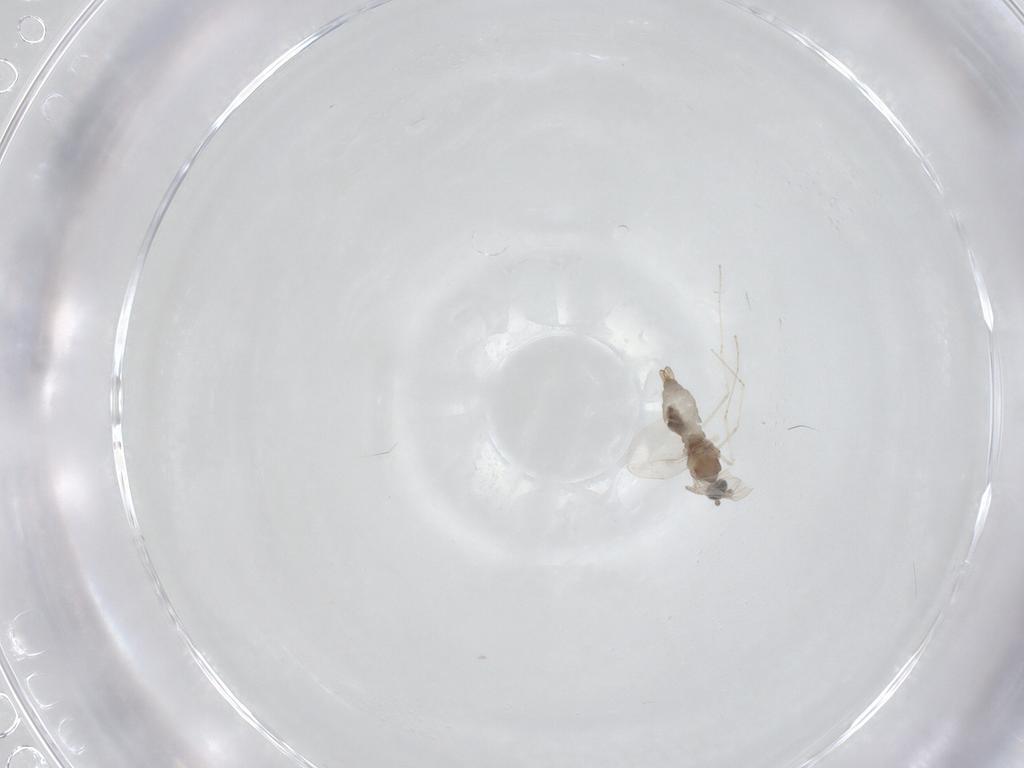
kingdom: Animalia
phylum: Arthropoda
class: Insecta
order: Diptera
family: Cecidomyiidae
